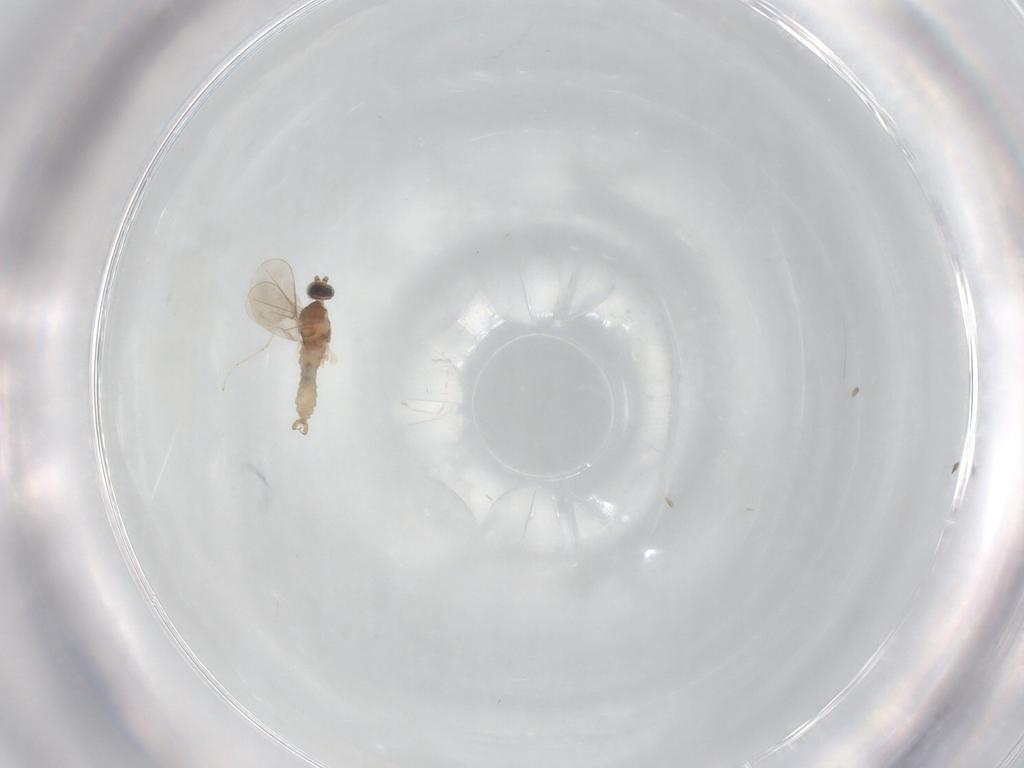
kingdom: Animalia
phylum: Arthropoda
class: Insecta
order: Diptera
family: Cecidomyiidae
